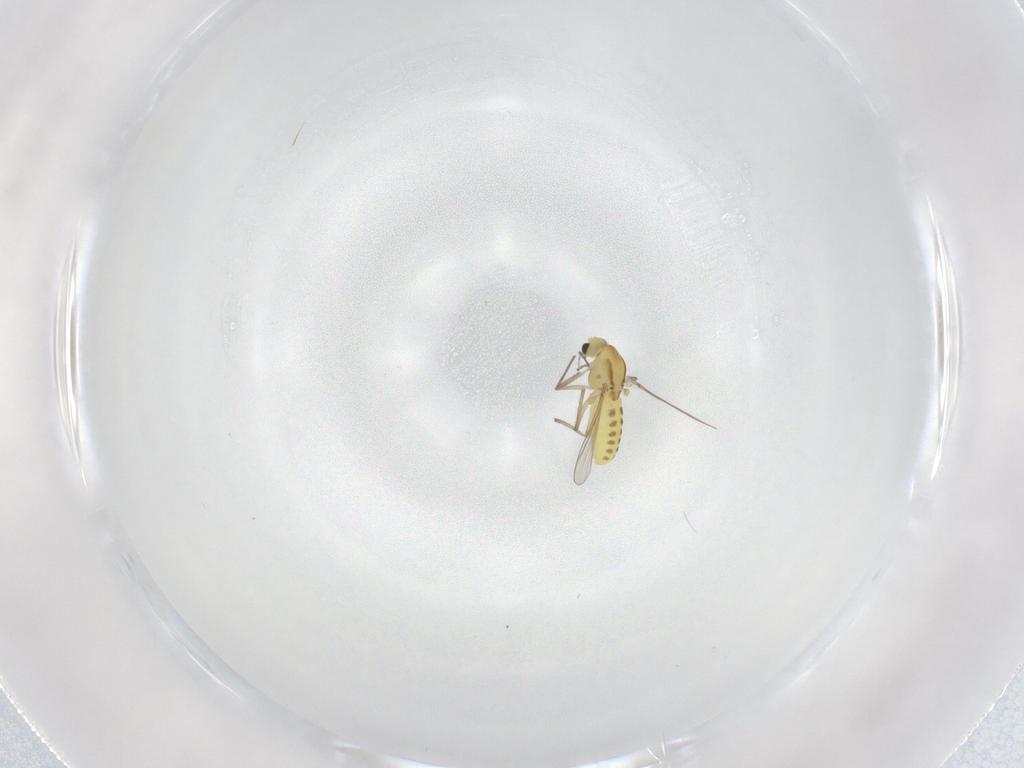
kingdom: Animalia
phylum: Arthropoda
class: Insecta
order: Diptera
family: Chironomidae
